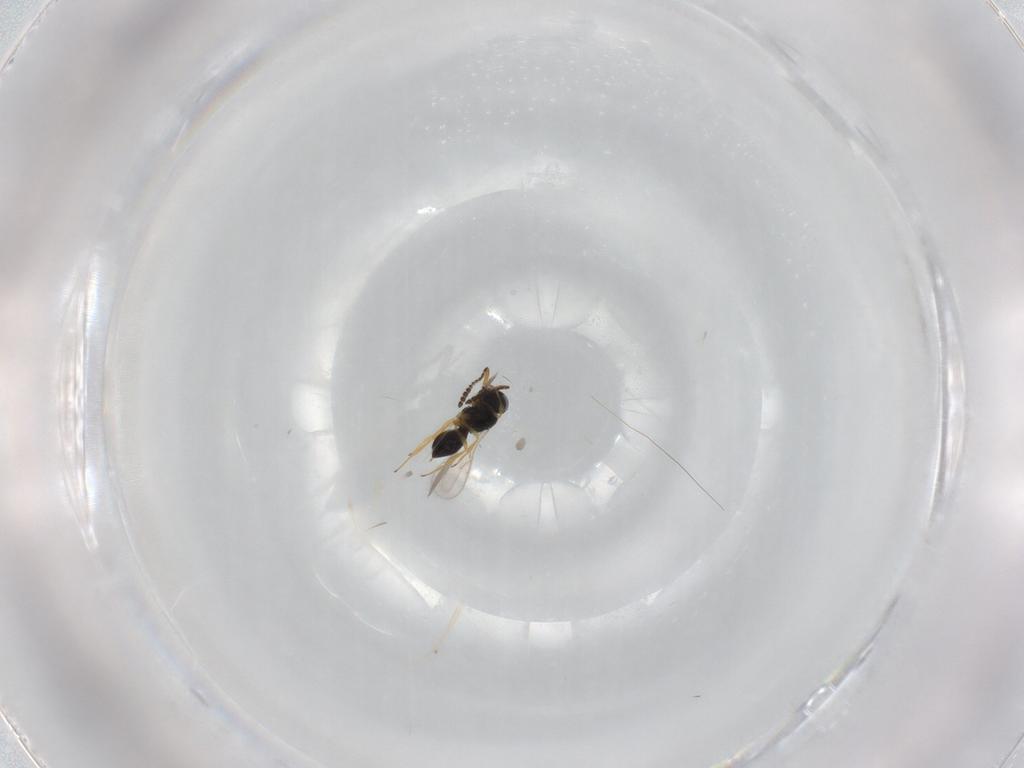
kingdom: Animalia
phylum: Arthropoda
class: Insecta
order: Hymenoptera
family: Scelionidae
